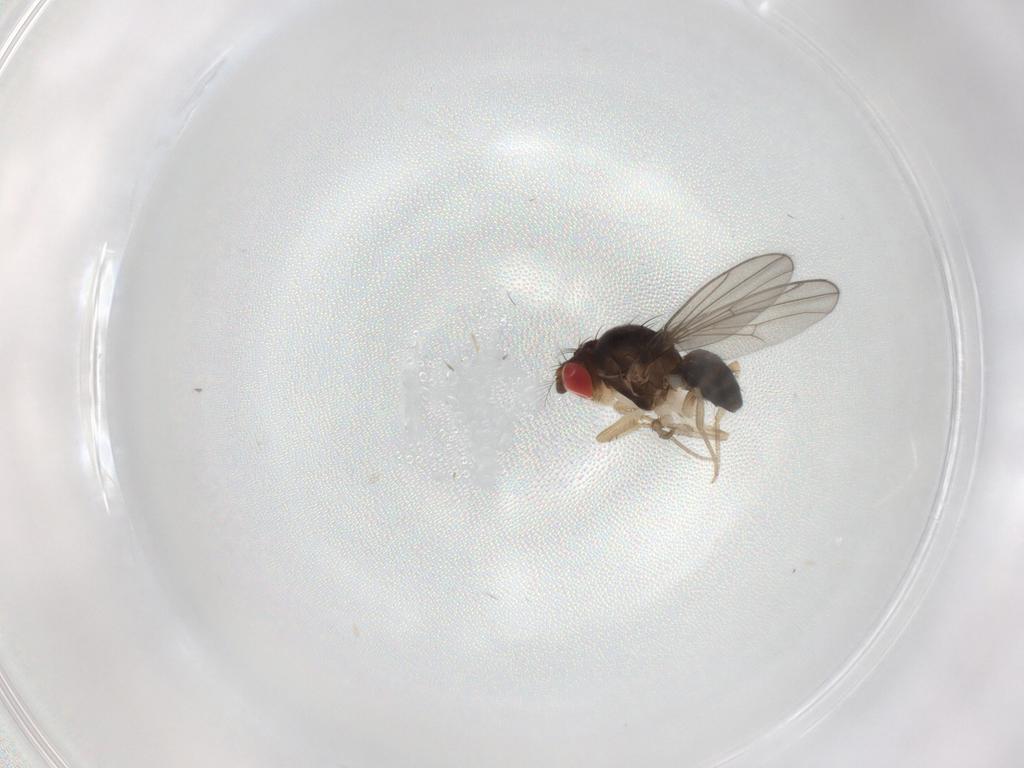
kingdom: Animalia
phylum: Arthropoda
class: Insecta
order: Diptera
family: Drosophilidae
